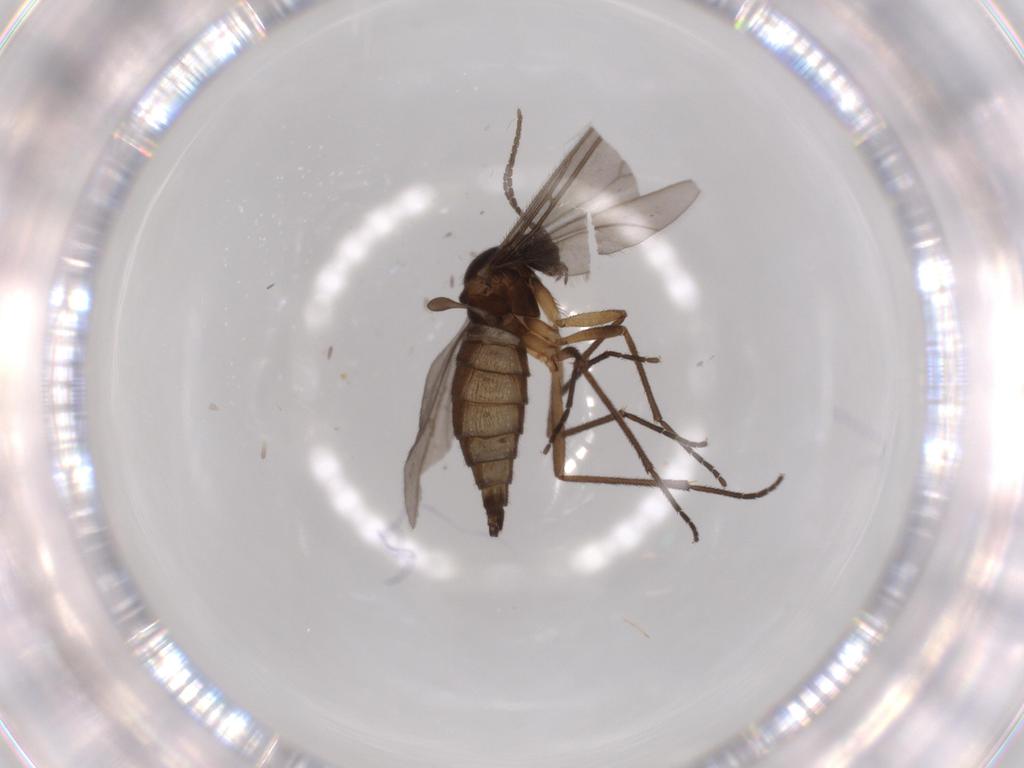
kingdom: Animalia
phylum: Arthropoda
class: Insecta
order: Diptera
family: Sciaridae
